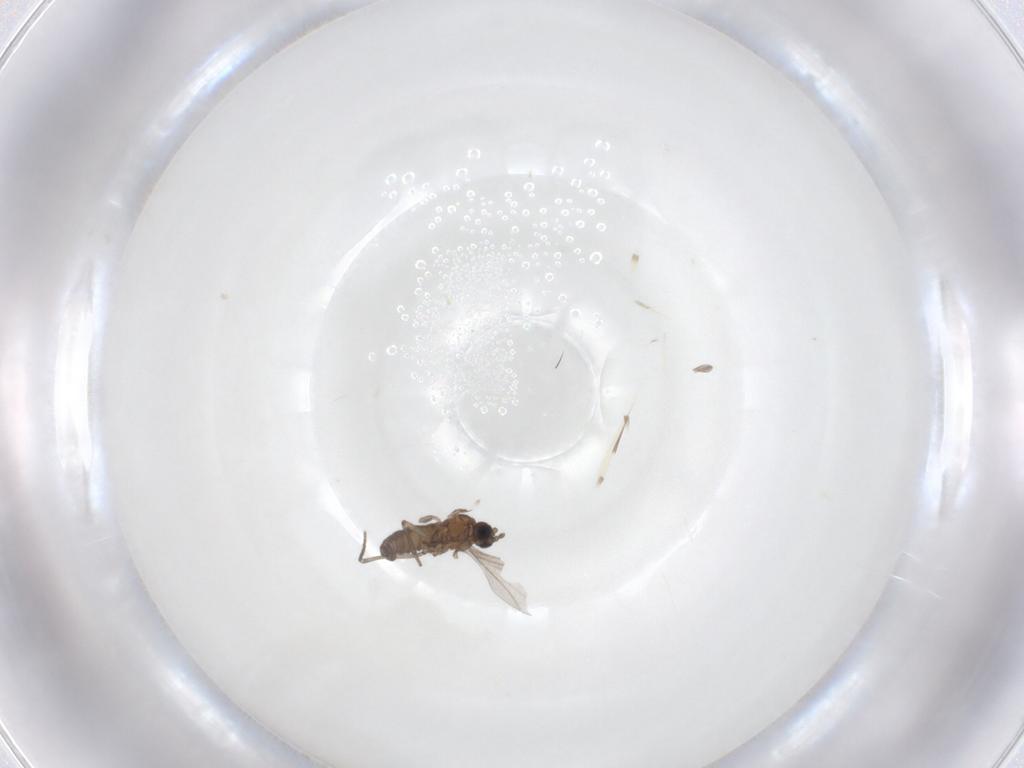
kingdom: Animalia
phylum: Arthropoda
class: Insecta
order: Diptera
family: Sciaridae
